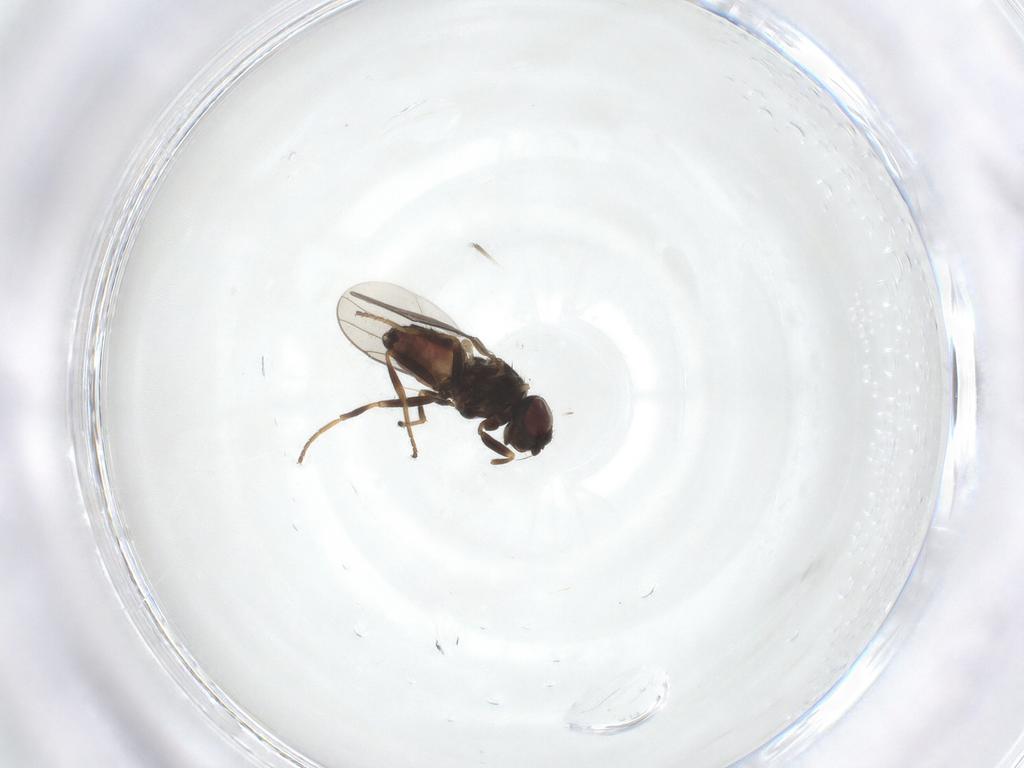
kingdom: Animalia
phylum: Arthropoda
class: Insecta
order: Diptera
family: Chloropidae
